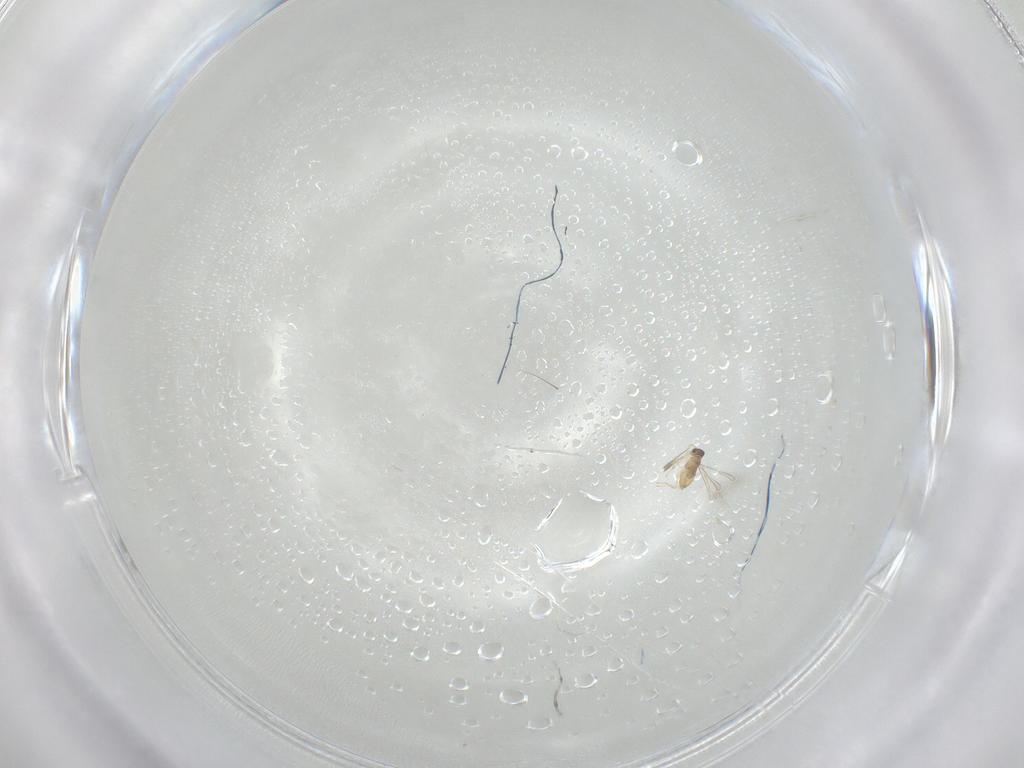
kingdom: Animalia
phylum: Arthropoda
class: Insecta
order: Hymenoptera
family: Mymaridae
